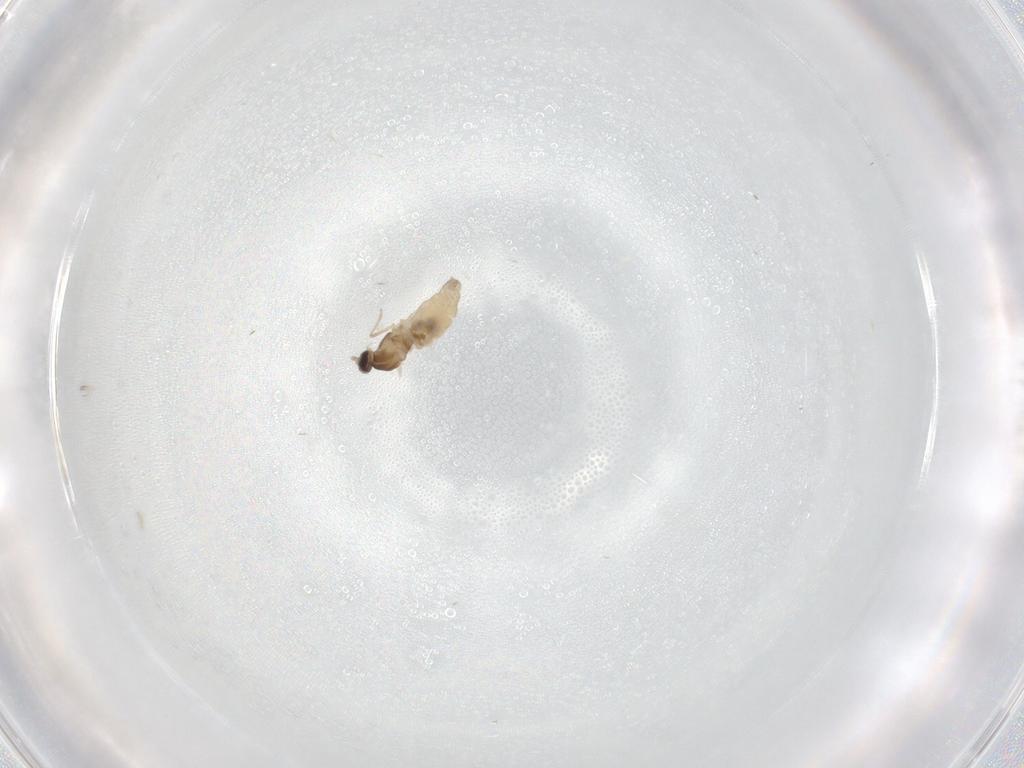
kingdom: Animalia
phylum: Arthropoda
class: Insecta
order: Diptera
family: Cecidomyiidae
